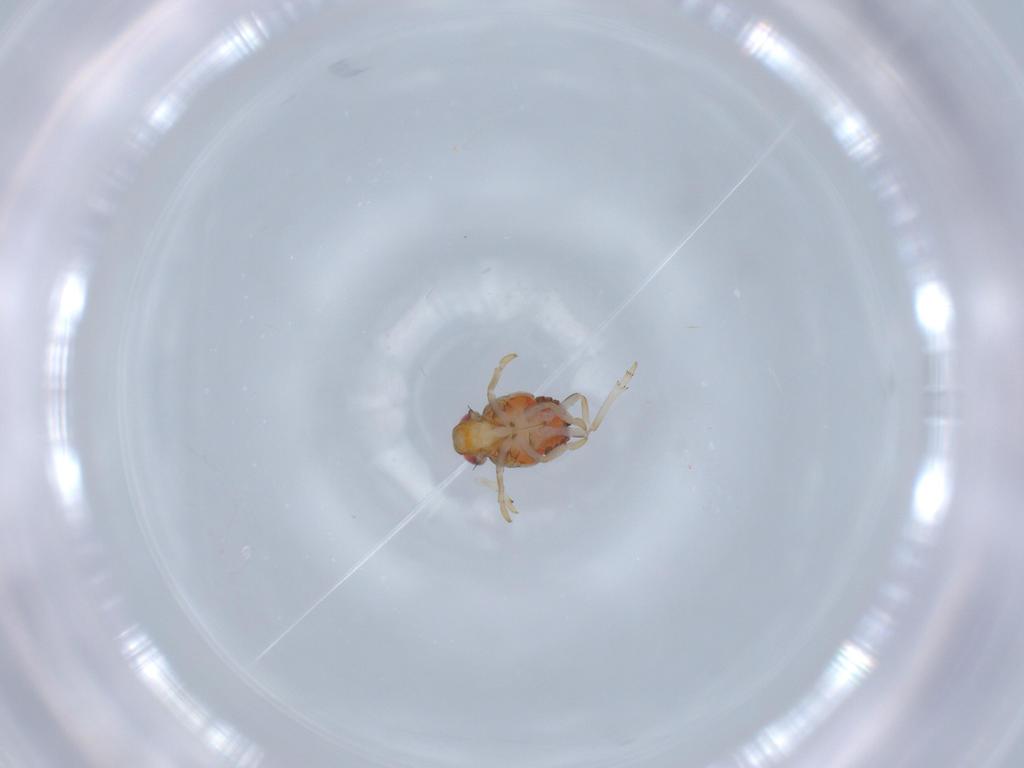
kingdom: Animalia
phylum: Arthropoda
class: Insecta
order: Hemiptera
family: Issidae
